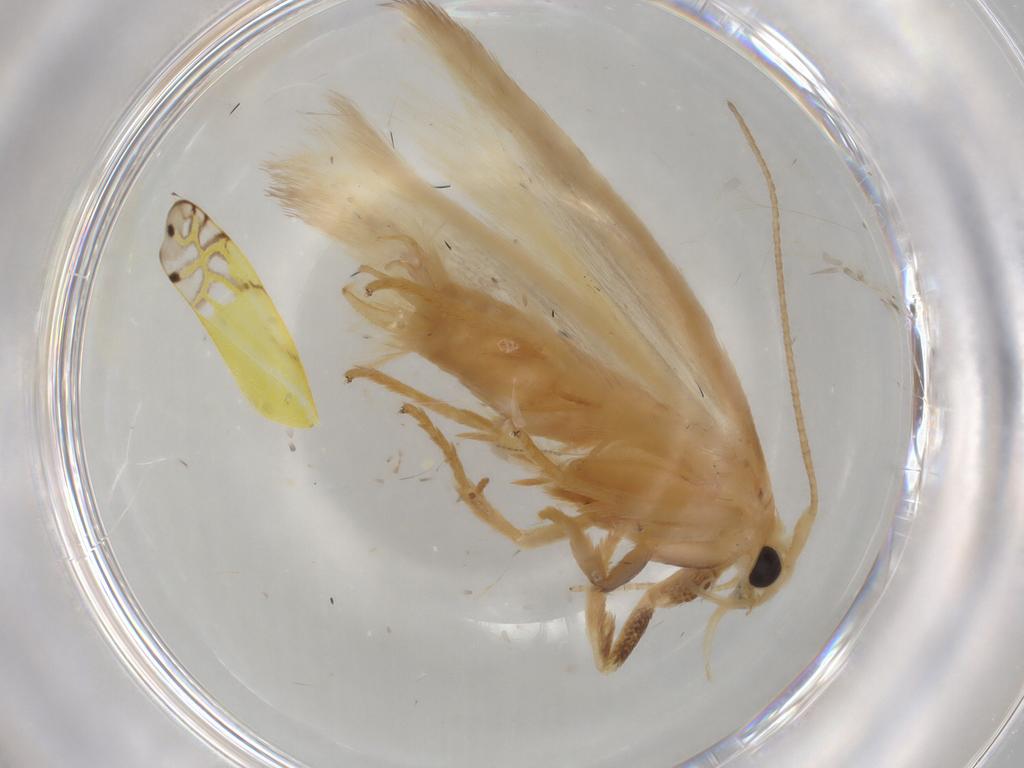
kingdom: Animalia
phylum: Arthropoda
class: Insecta
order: Lepidoptera
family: Geometridae
